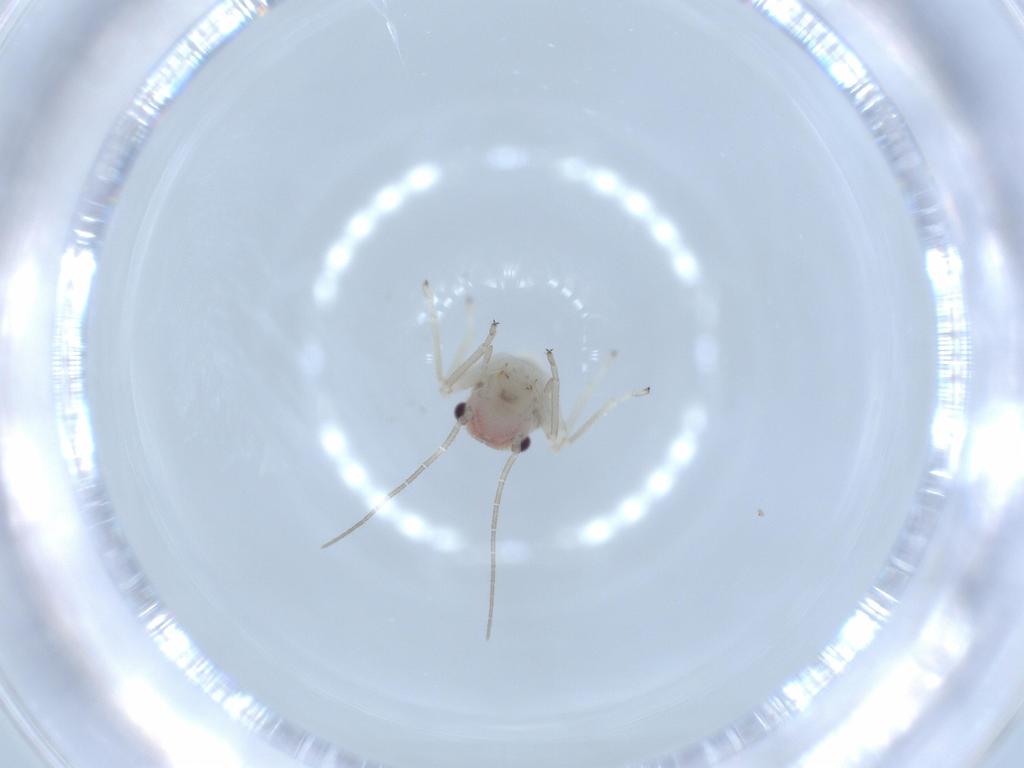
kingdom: Animalia
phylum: Arthropoda
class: Insecta
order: Psocodea
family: Amphipsocidae
